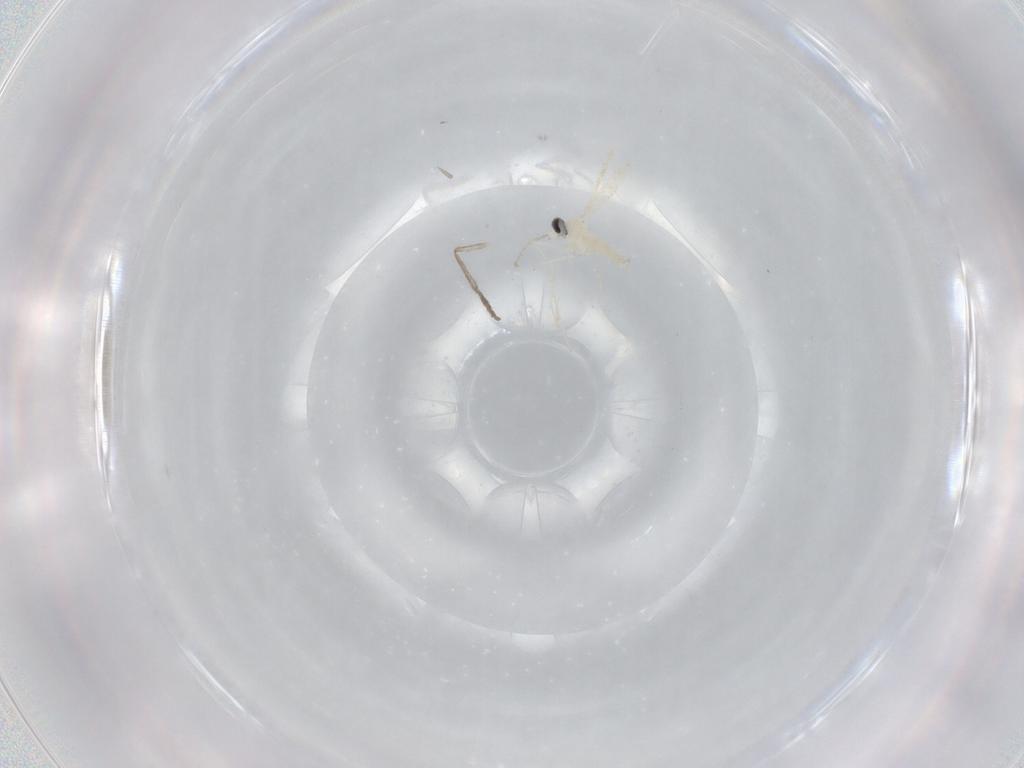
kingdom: Animalia
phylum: Arthropoda
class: Insecta
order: Diptera
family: Cecidomyiidae
